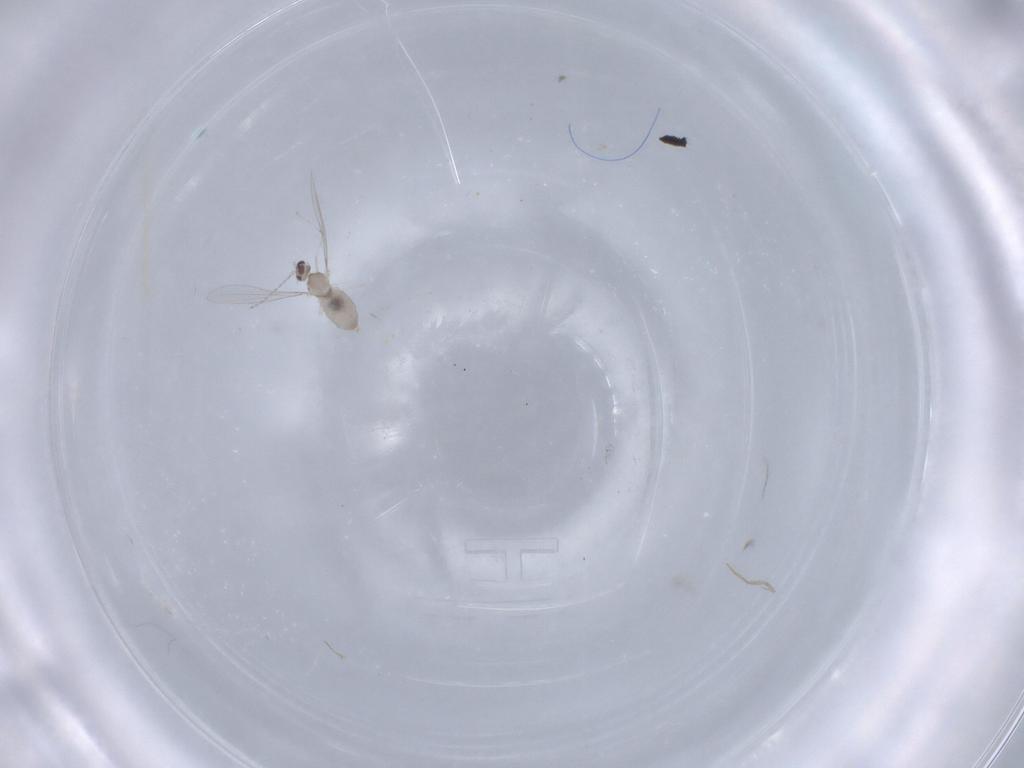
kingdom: Animalia
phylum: Arthropoda
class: Insecta
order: Diptera
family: Cecidomyiidae
